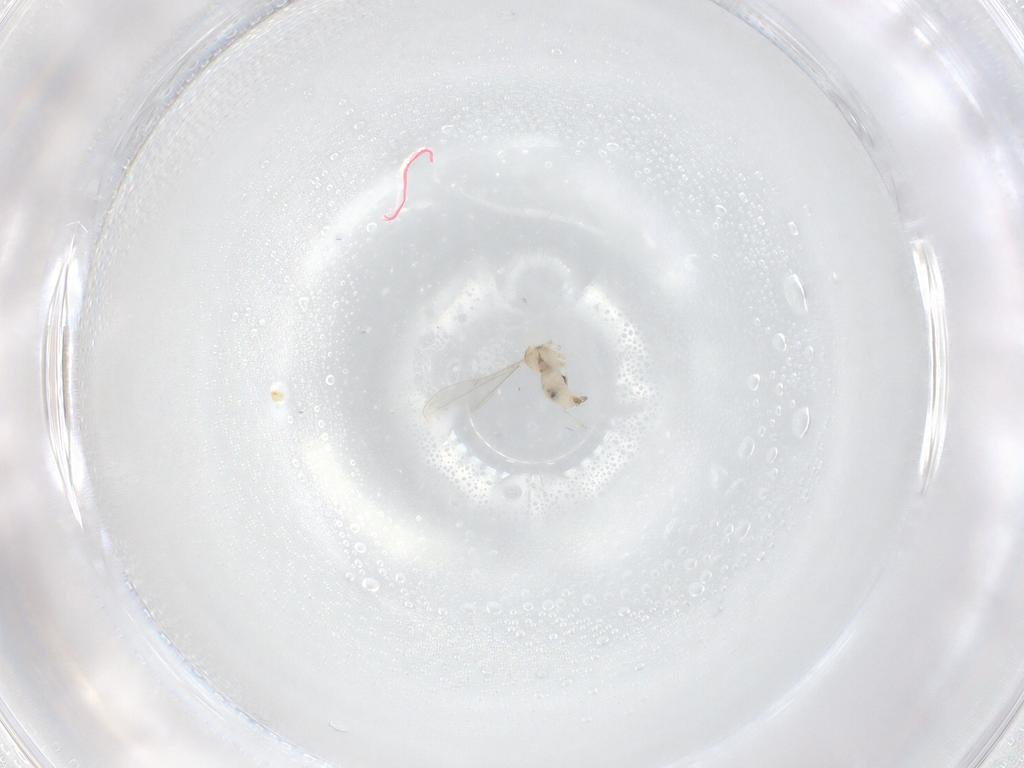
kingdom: Animalia
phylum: Arthropoda
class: Insecta
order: Diptera
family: Cecidomyiidae
